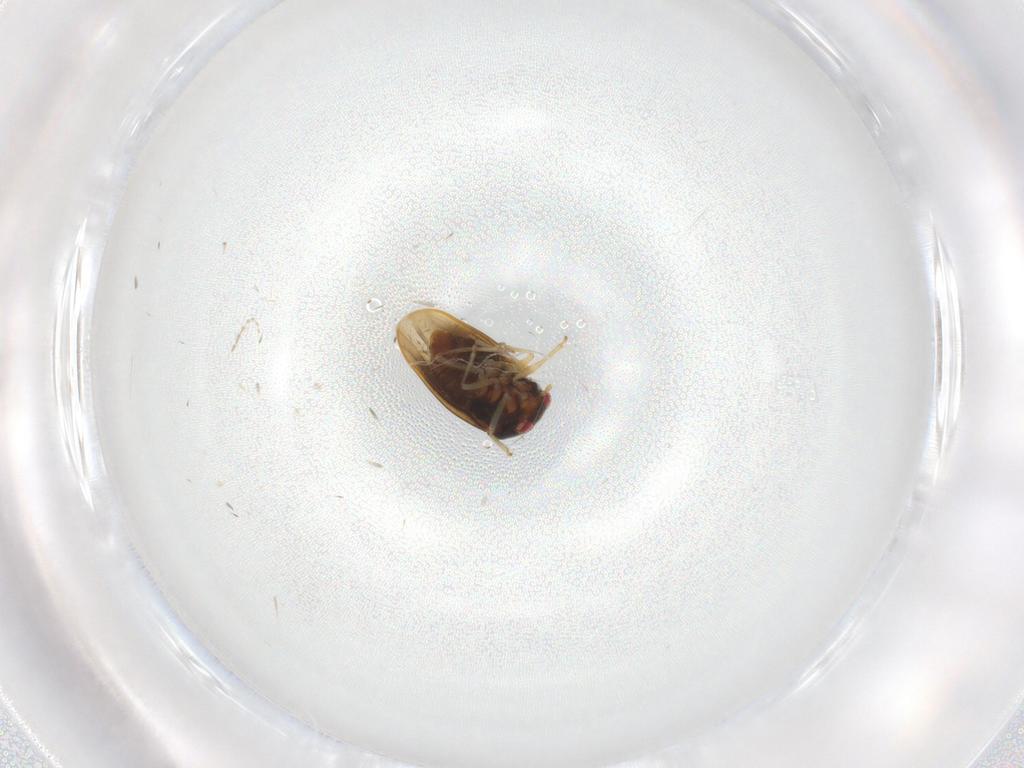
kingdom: Animalia
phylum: Arthropoda
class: Insecta
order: Hemiptera
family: Schizopteridae
